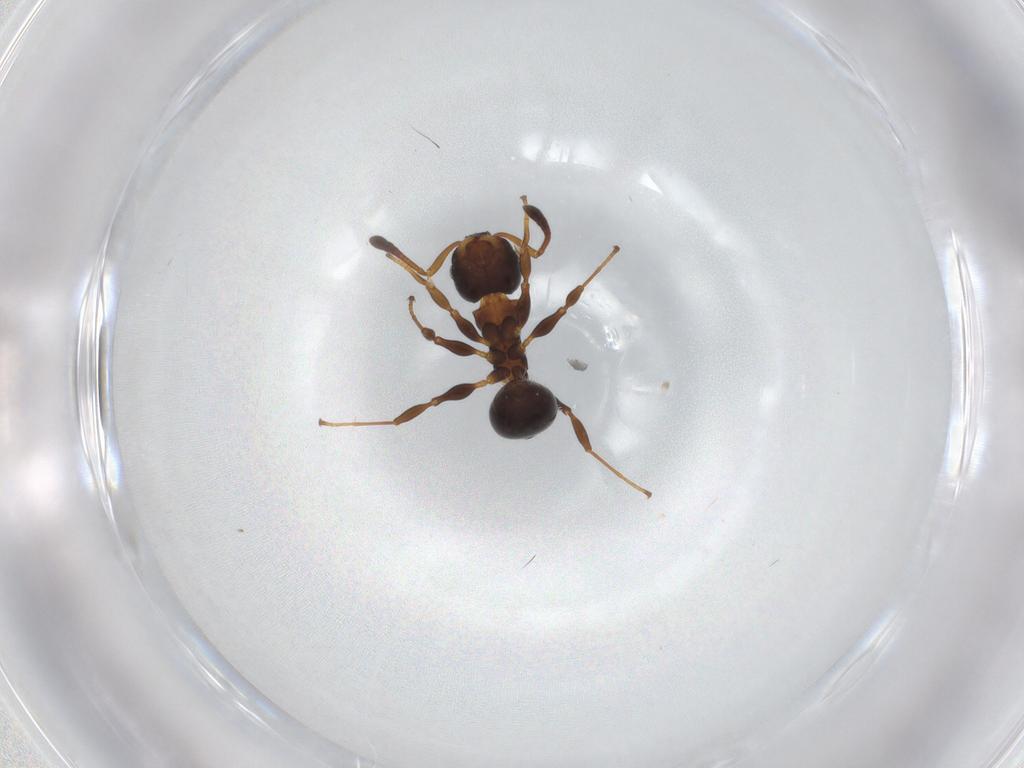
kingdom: Animalia
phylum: Arthropoda
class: Insecta
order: Hymenoptera
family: Formicidae
